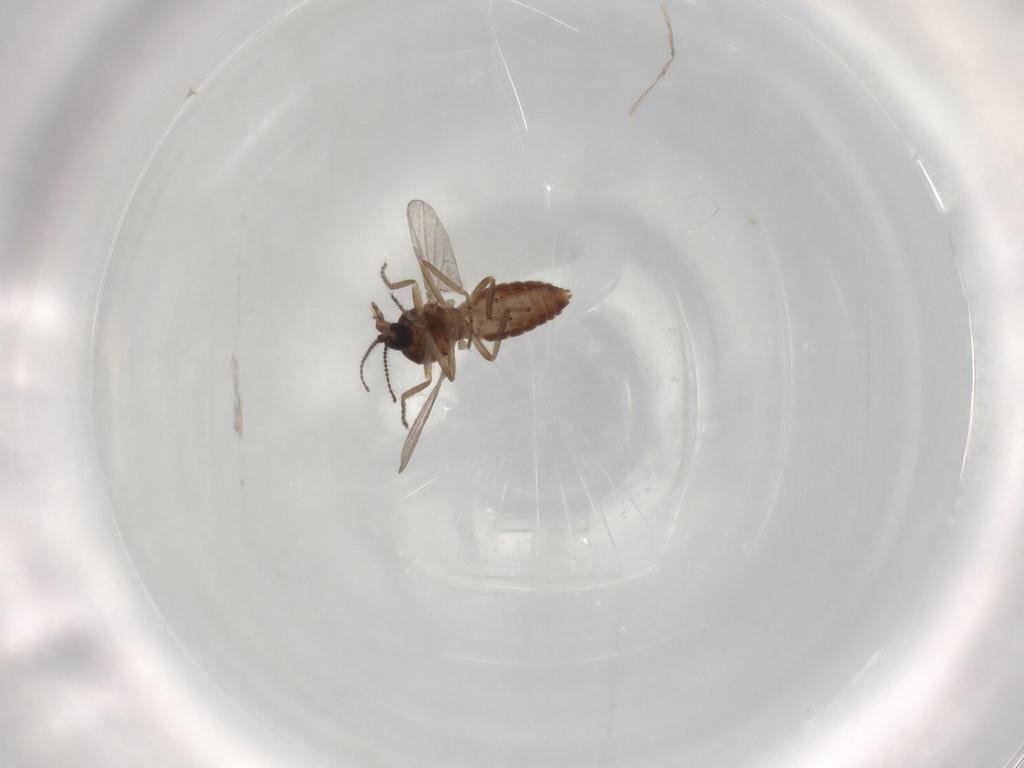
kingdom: Animalia
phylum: Arthropoda
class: Insecta
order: Diptera
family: Ceratopogonidae
